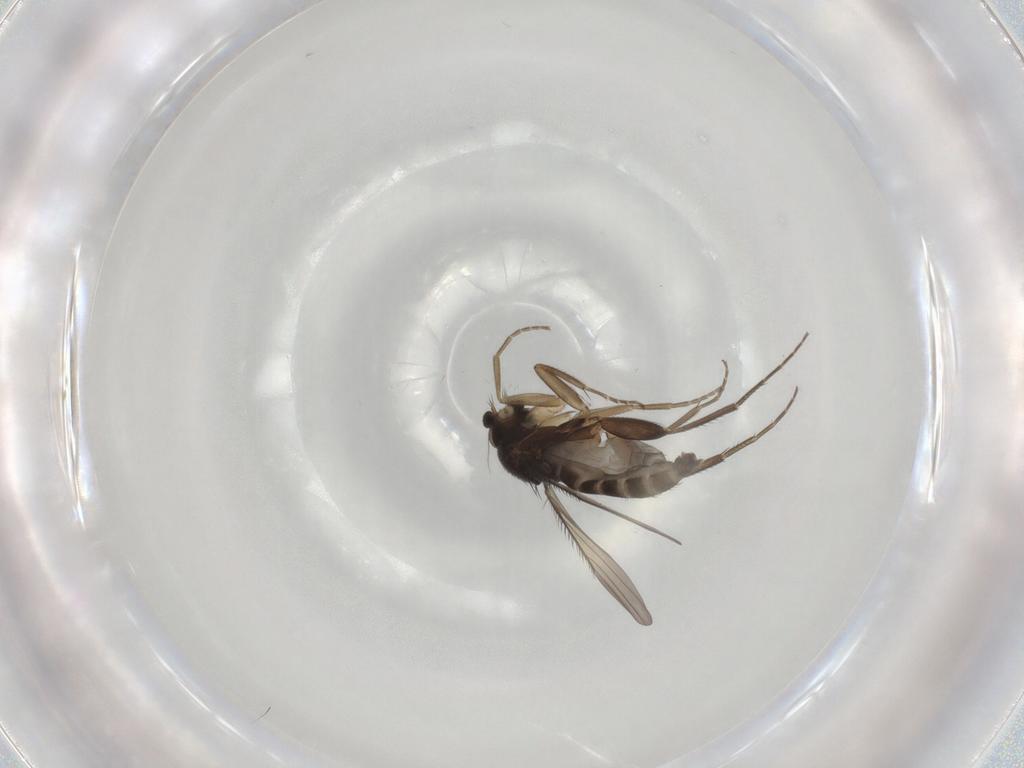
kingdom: Animalia
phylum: Arthropoda
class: Insecta
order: Diptera
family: Phoridae
